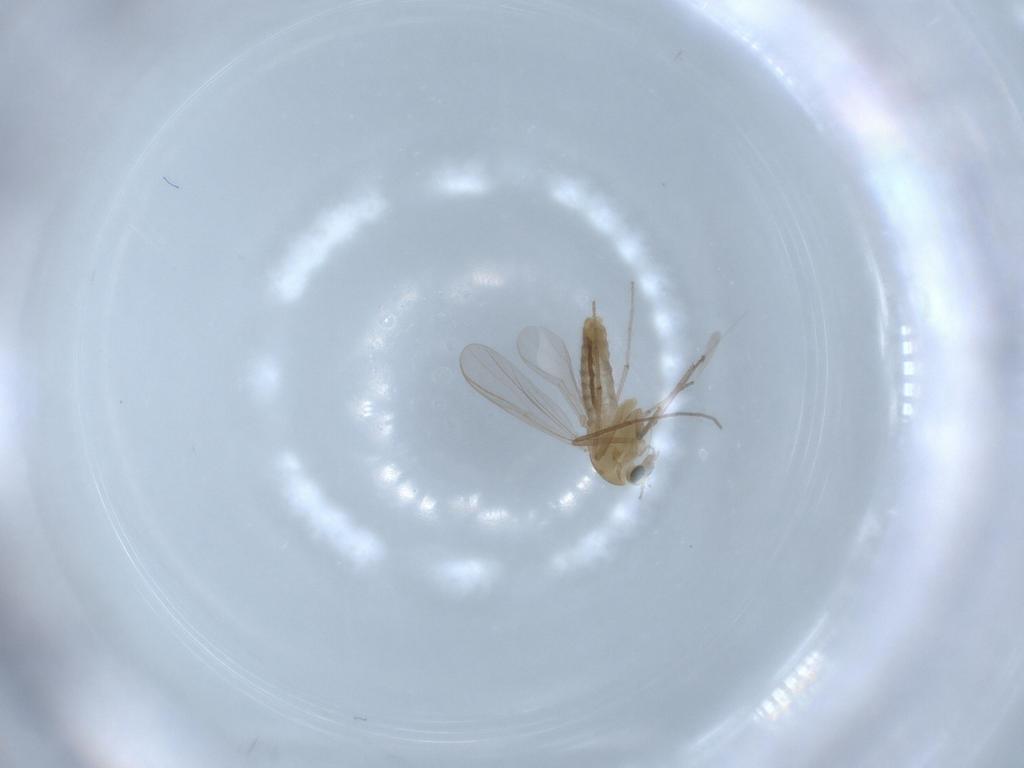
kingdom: Animalia
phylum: Arthropoda
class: Insecta
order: Diptera
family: Chironomidae
